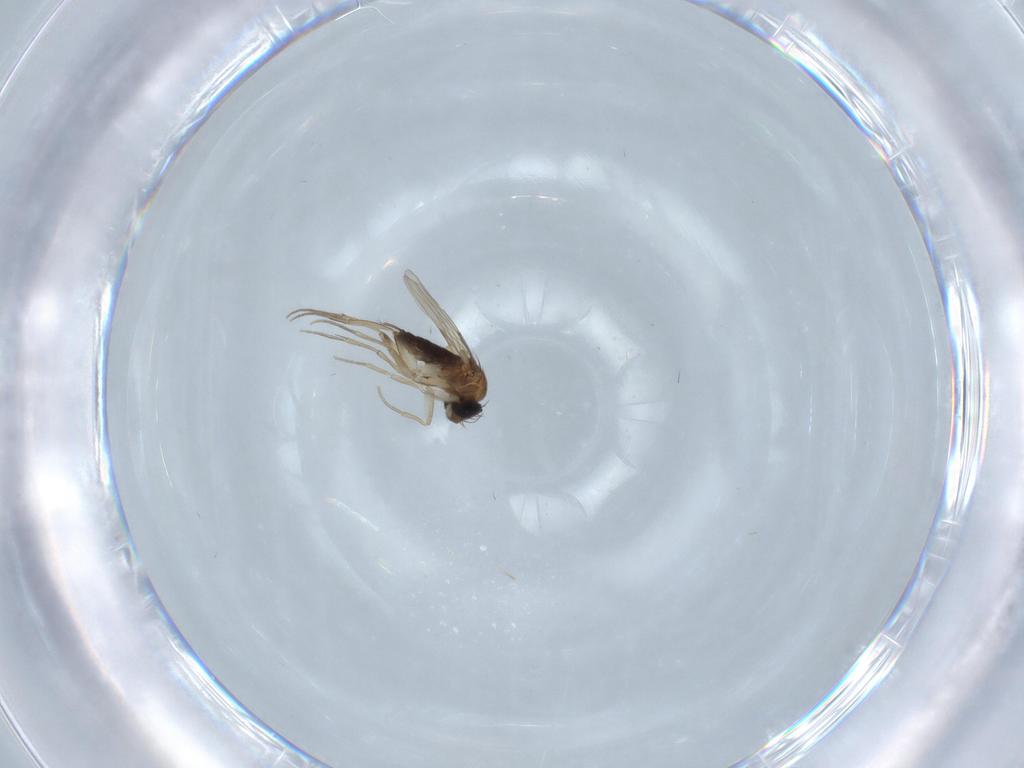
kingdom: Animalia
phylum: Arthropoda
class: Insecta
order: Diptera
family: Phoridae
